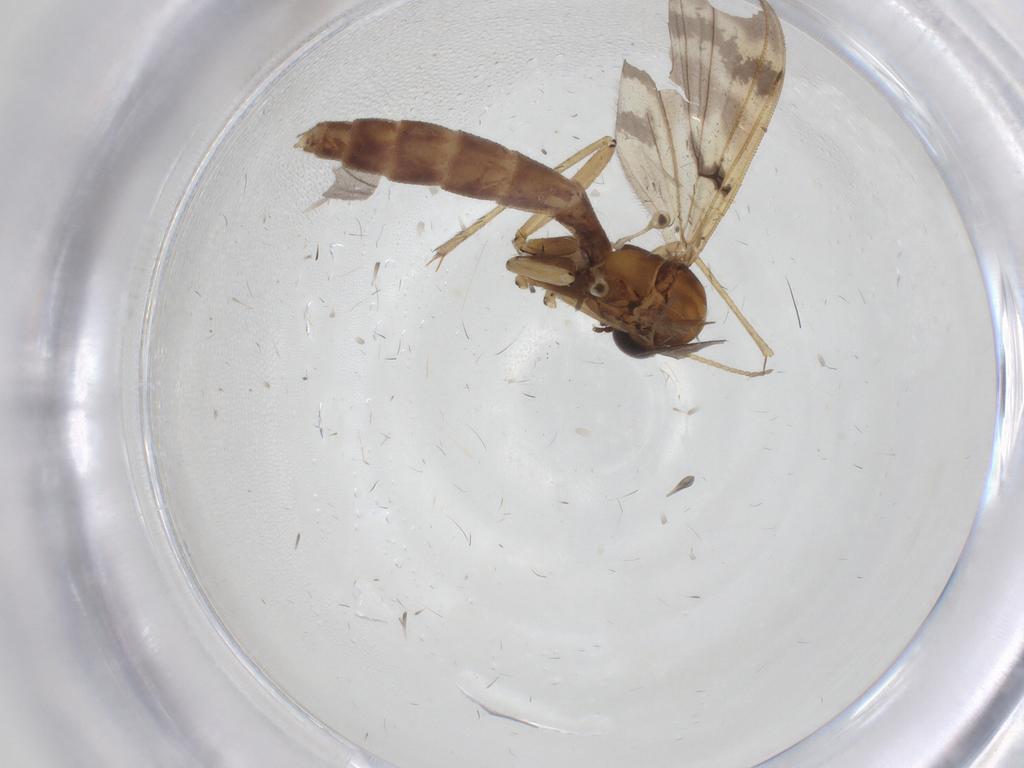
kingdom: Animalia
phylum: Arthropoda
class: Insecta
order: Diptera
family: Sciaridae
